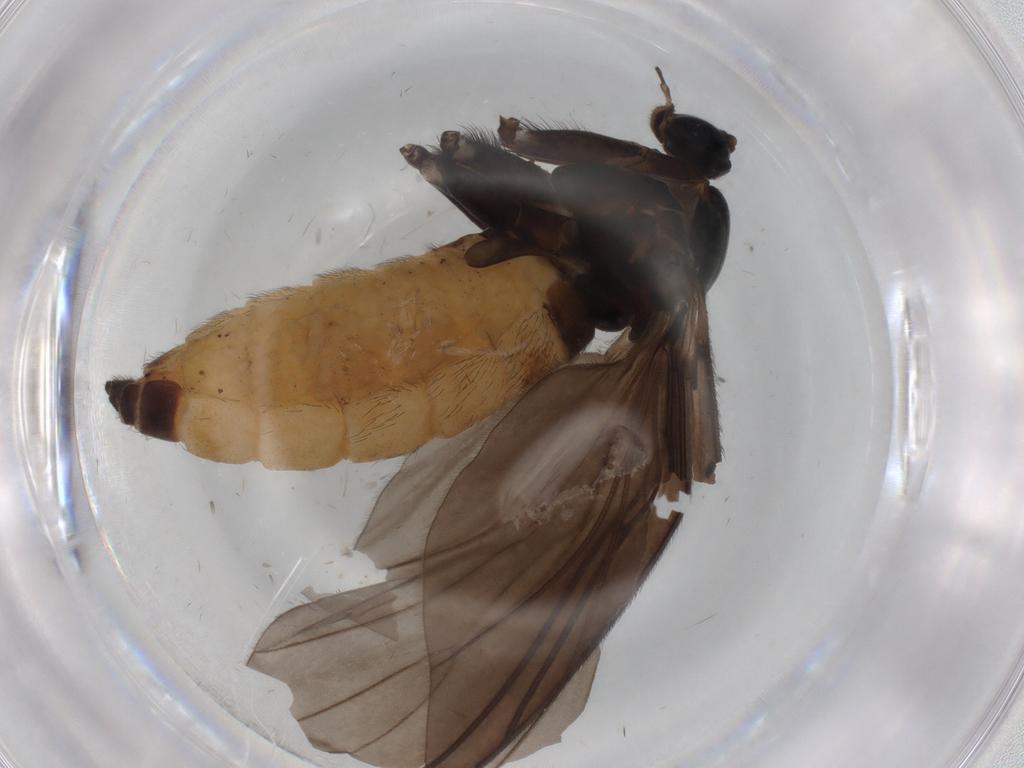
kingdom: Animalia
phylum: Arthropoda
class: Insecta
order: Diptera
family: Sciaridae
